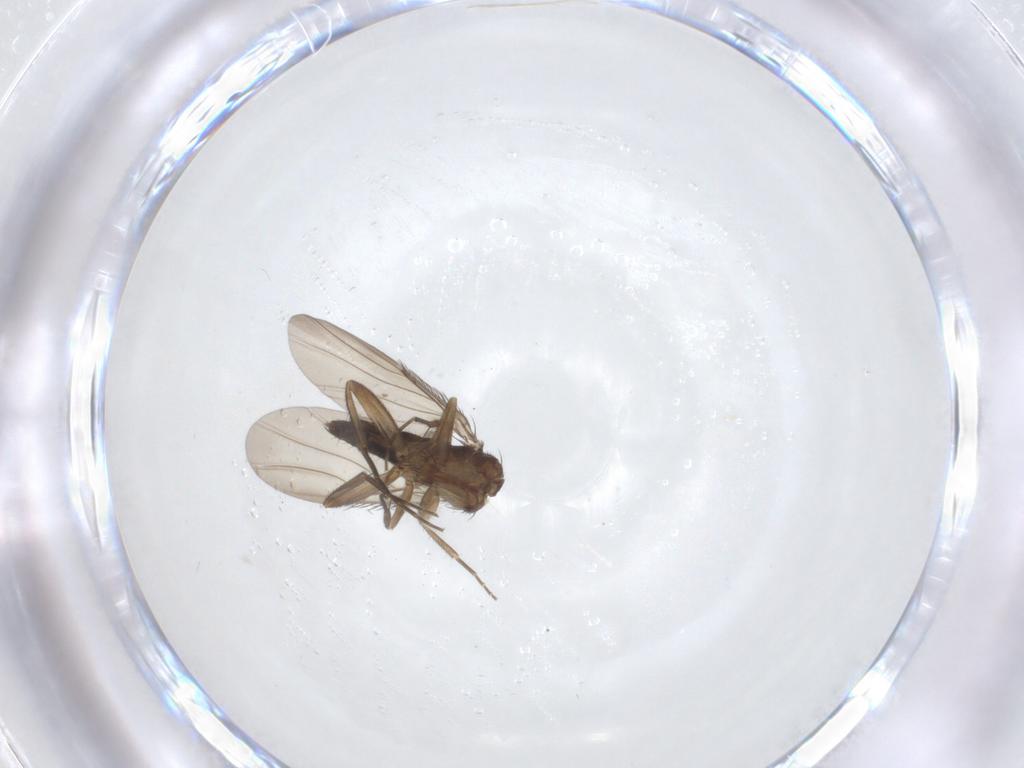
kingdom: Animalia
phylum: Arthropoda
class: Insecta
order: Diptera
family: Phoridae
